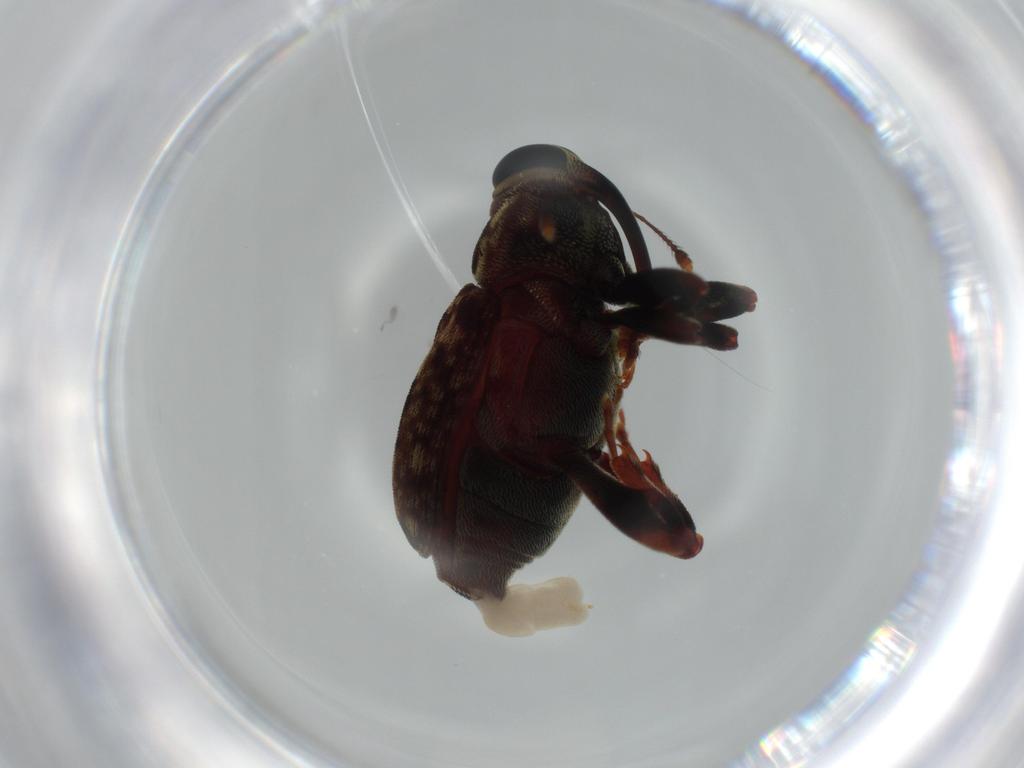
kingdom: Animalia
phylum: Arthropoda
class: Insecta
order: Coleoptera
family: Curculionidae
